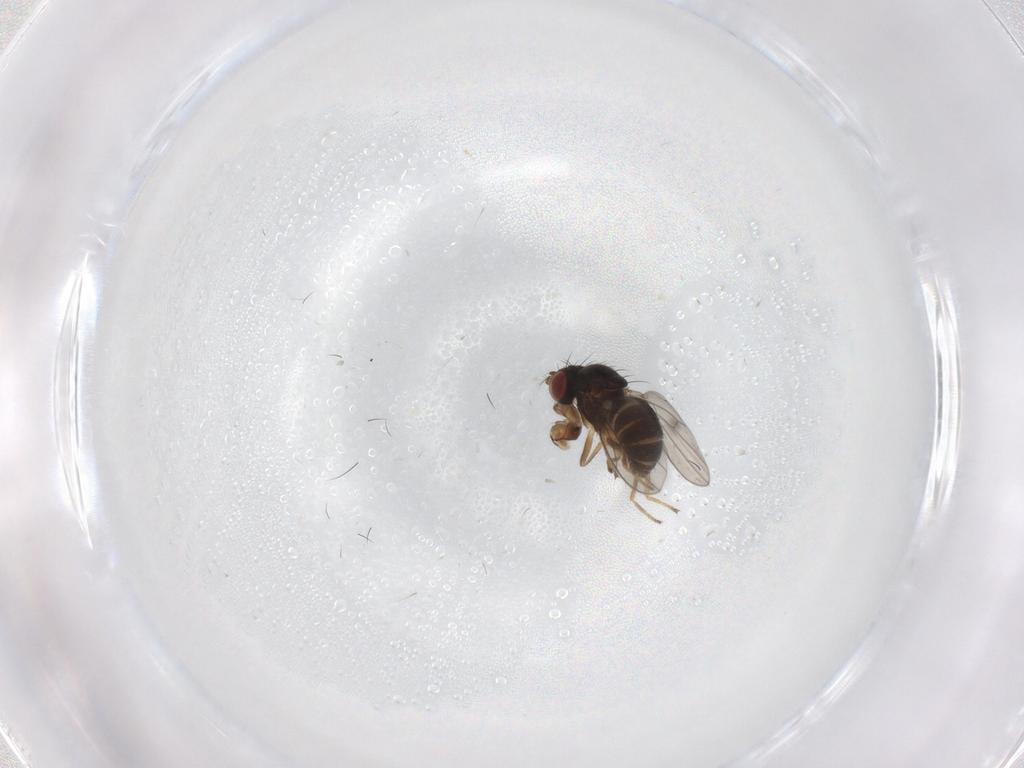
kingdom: Animalia
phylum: Arthropoda
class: Insecta
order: Diptera
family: Ephydridae
